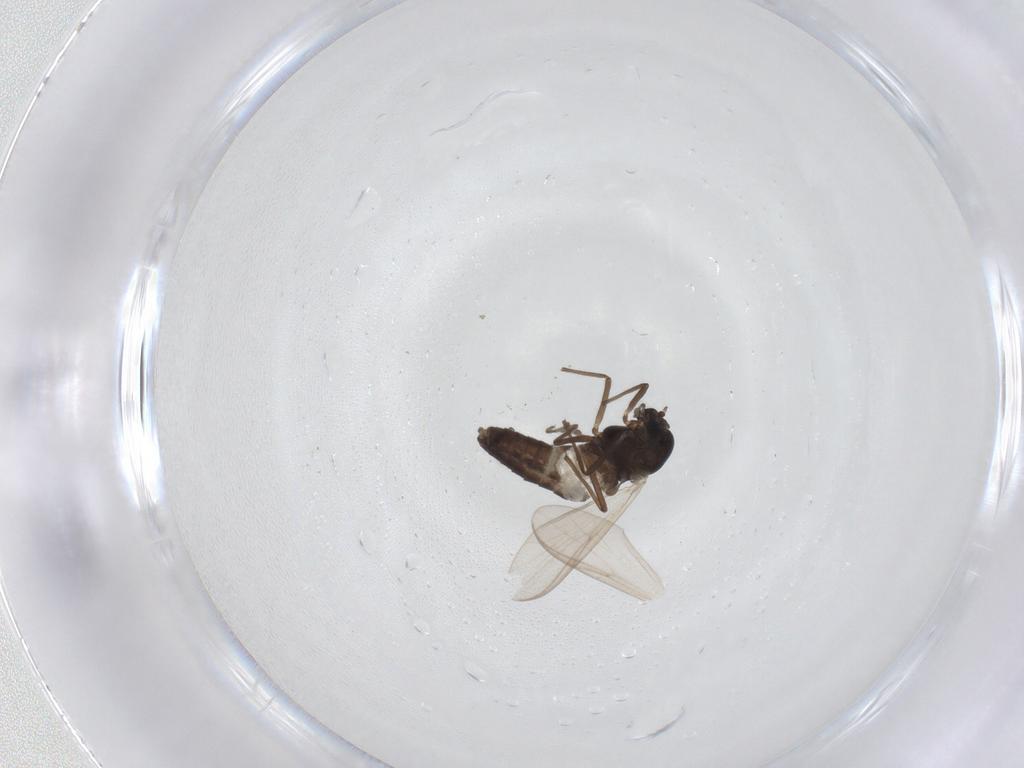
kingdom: Animalia
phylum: Arthropoda
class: Insecta
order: Diptera
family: Chironomidae
